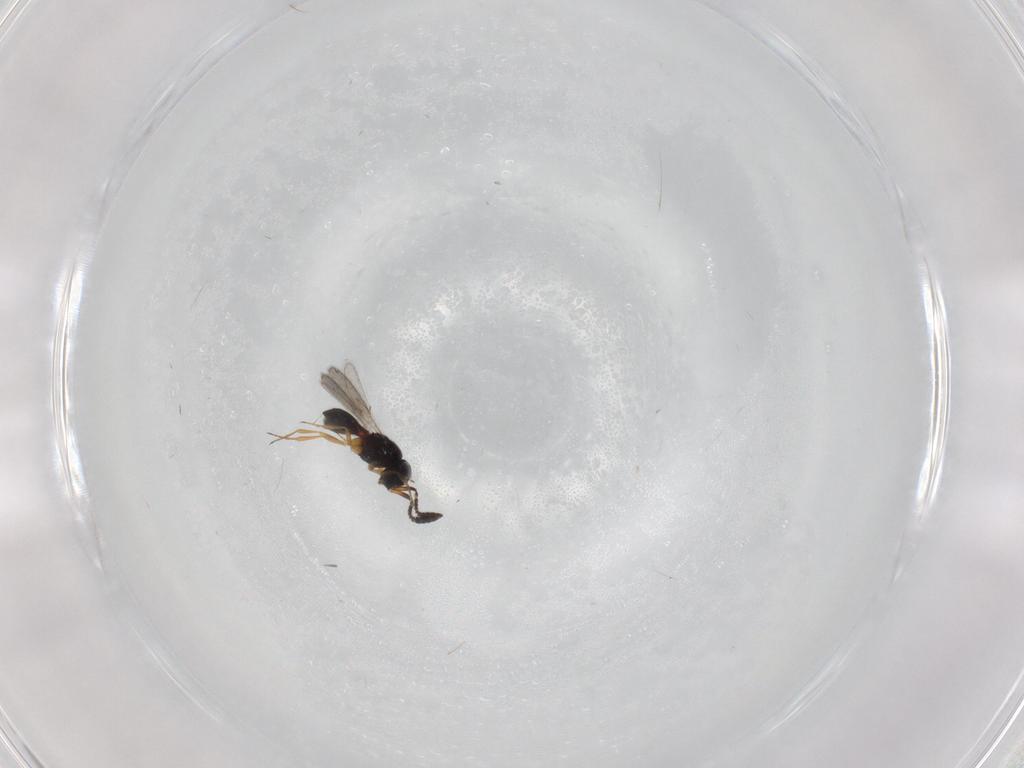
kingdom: Animalia
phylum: Arthropoda
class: Insecta
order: Hymenoptera
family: Scelionidae
